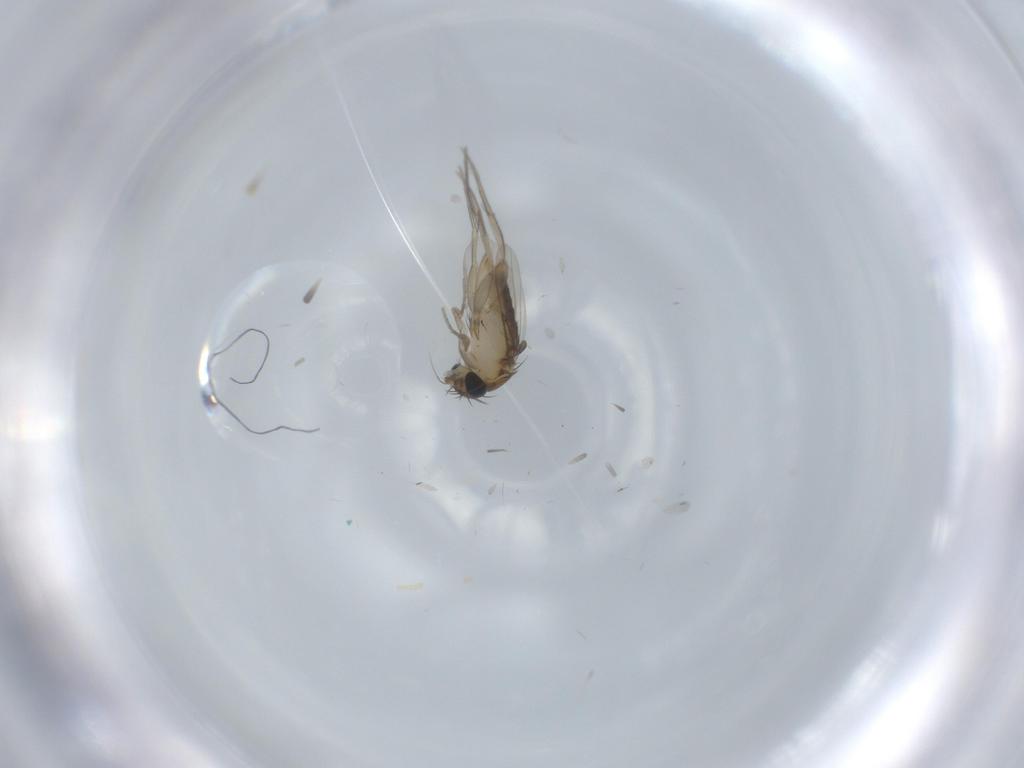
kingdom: Animalia
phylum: Arthropoda
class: Insecta
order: Diptera
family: Phoridae
